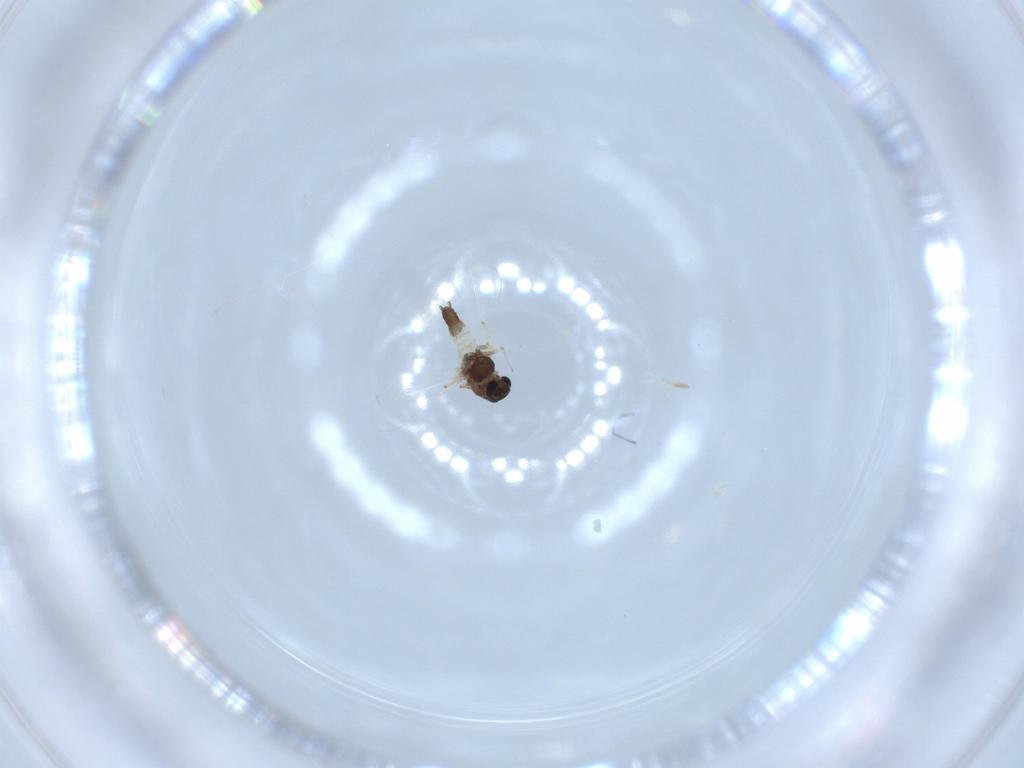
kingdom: Animalia
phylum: Arthropoda
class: Insecta
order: Diptera
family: Chironomidae
